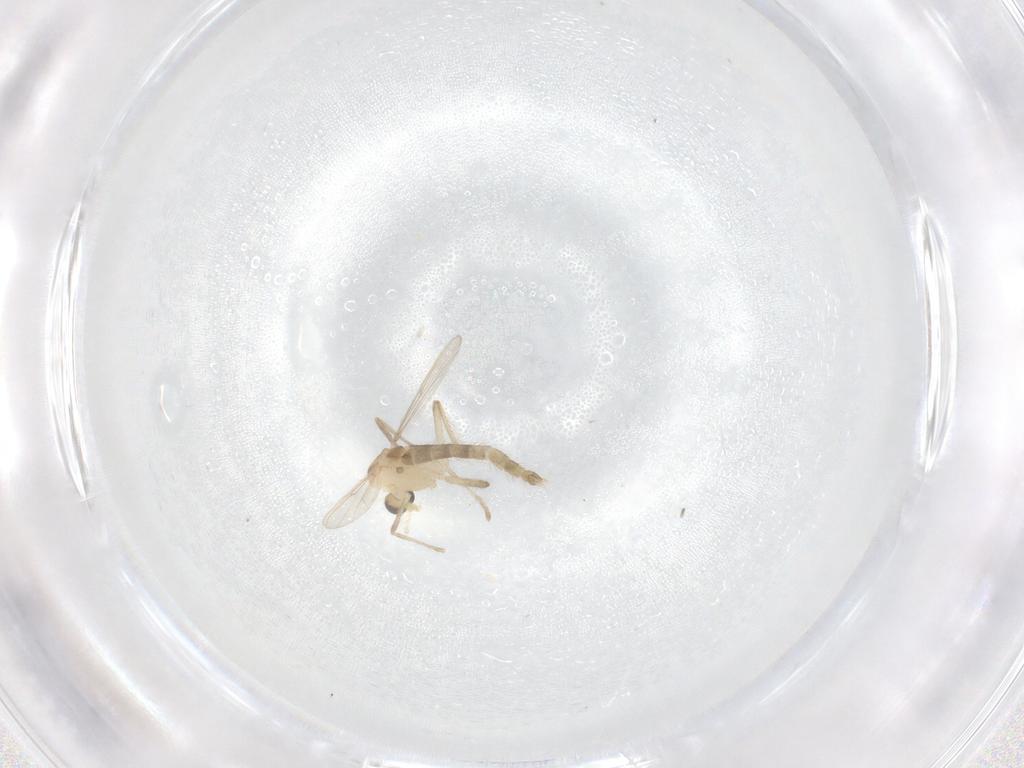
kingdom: Animalia
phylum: Arthropoda
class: Insecta
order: Diptera
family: Chironomidae
